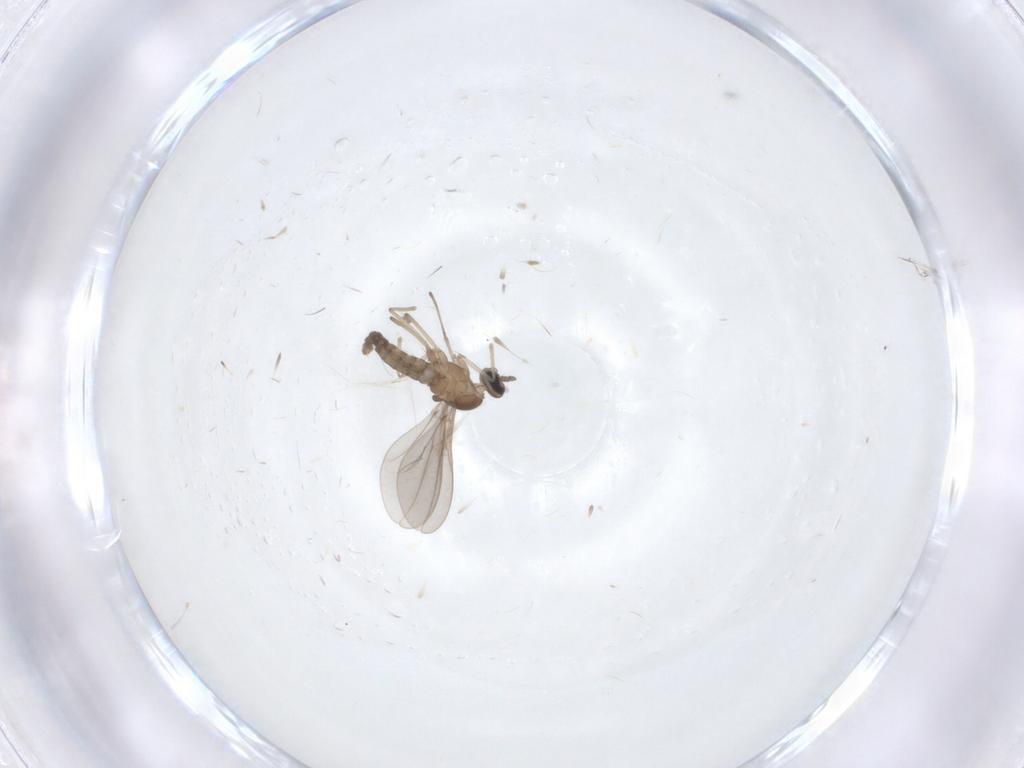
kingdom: Animalia
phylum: Arthropoda
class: Insecta
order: Diptera
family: Cecidomyiidae
